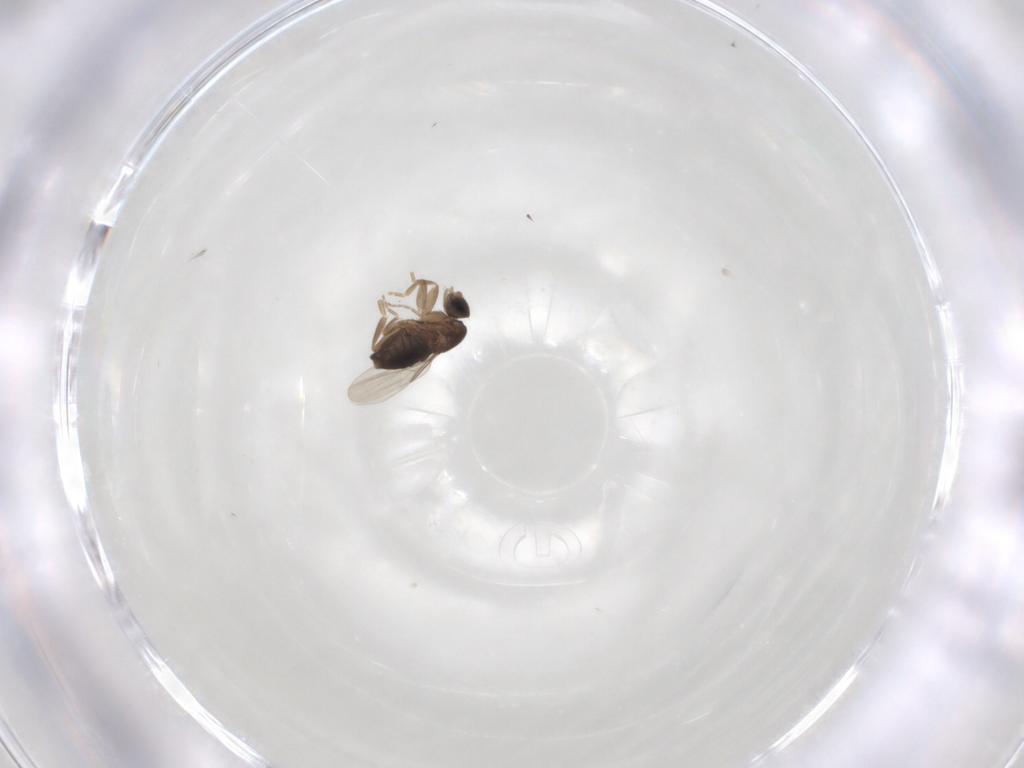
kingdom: Animalia
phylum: Arthropoda
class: Insecta
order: Diptera
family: Phoridae
